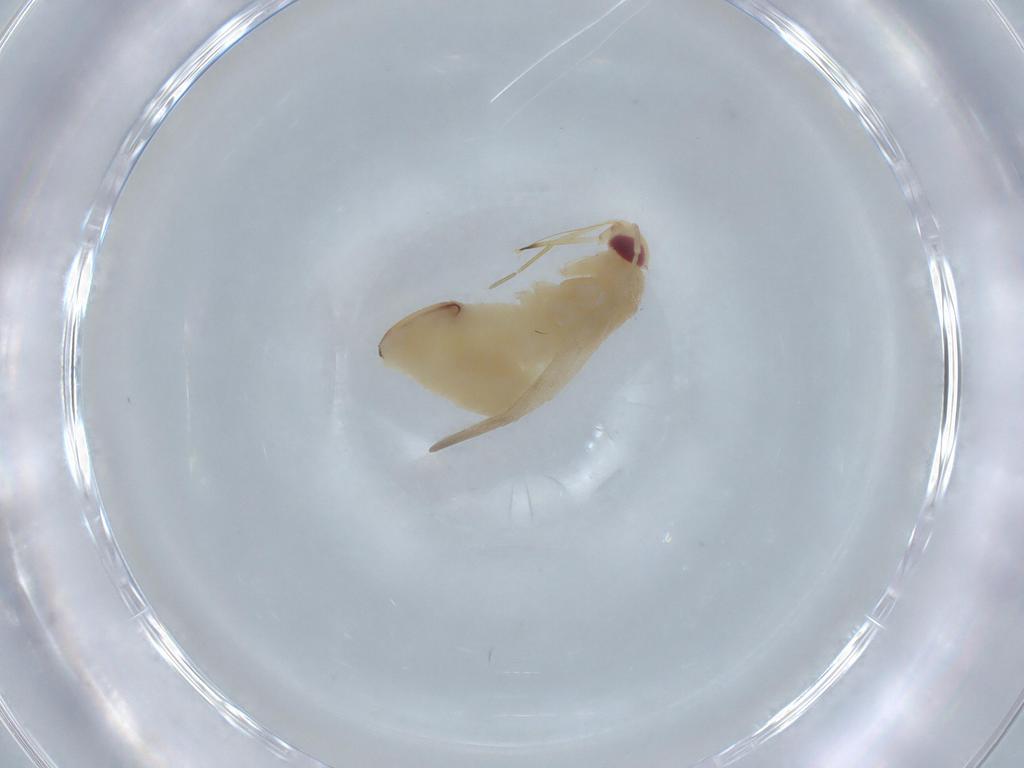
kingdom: Animalia
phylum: Arthropoda
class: Insecta
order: Hemiptera
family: Miridae
